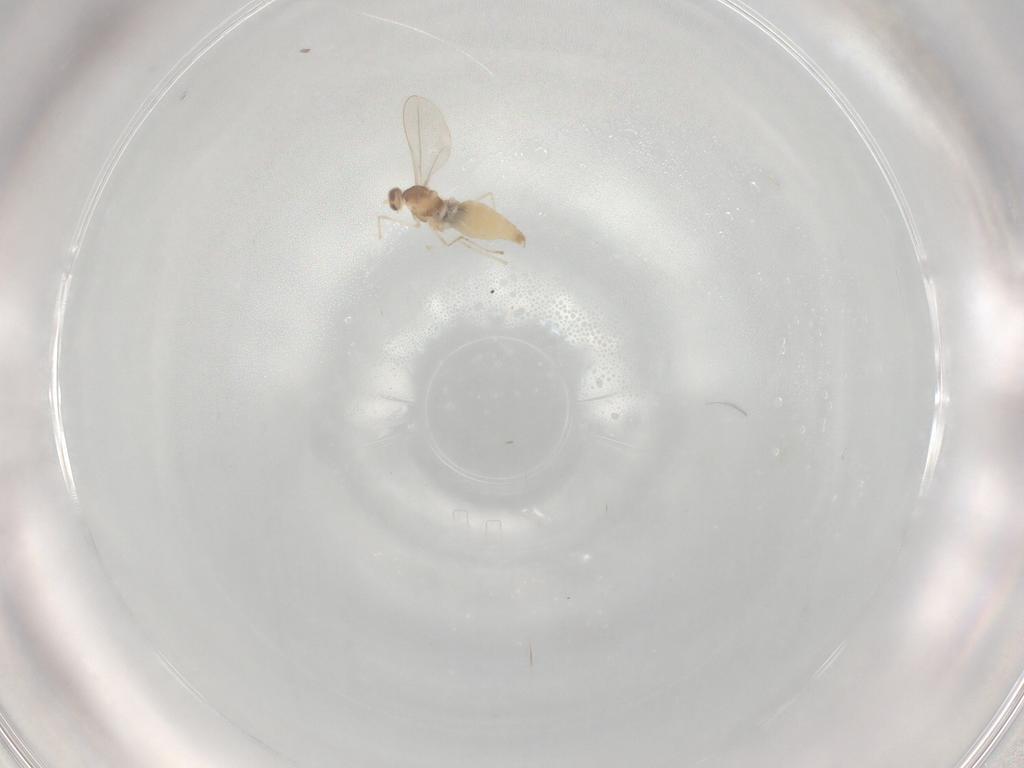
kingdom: Animalia
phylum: Arthropoda
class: Insecta
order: Diptera
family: Cecidomyiidae
